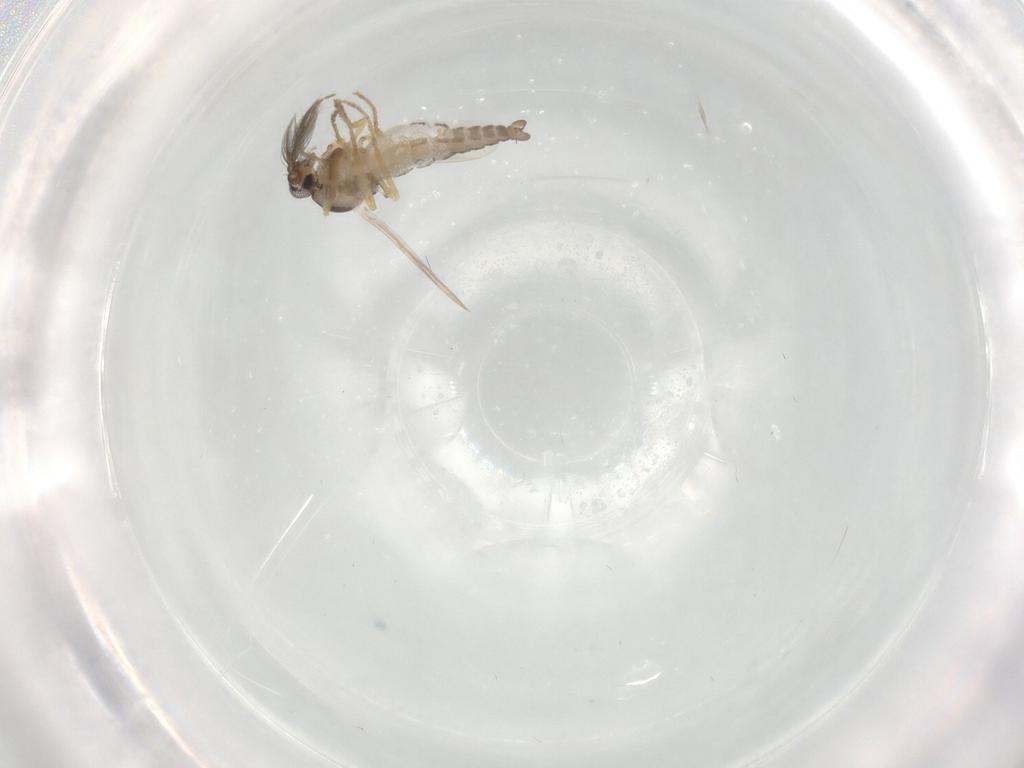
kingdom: Animalia
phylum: Arthropoda
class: Insecta
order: Diptera
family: Ceratopogonidae
